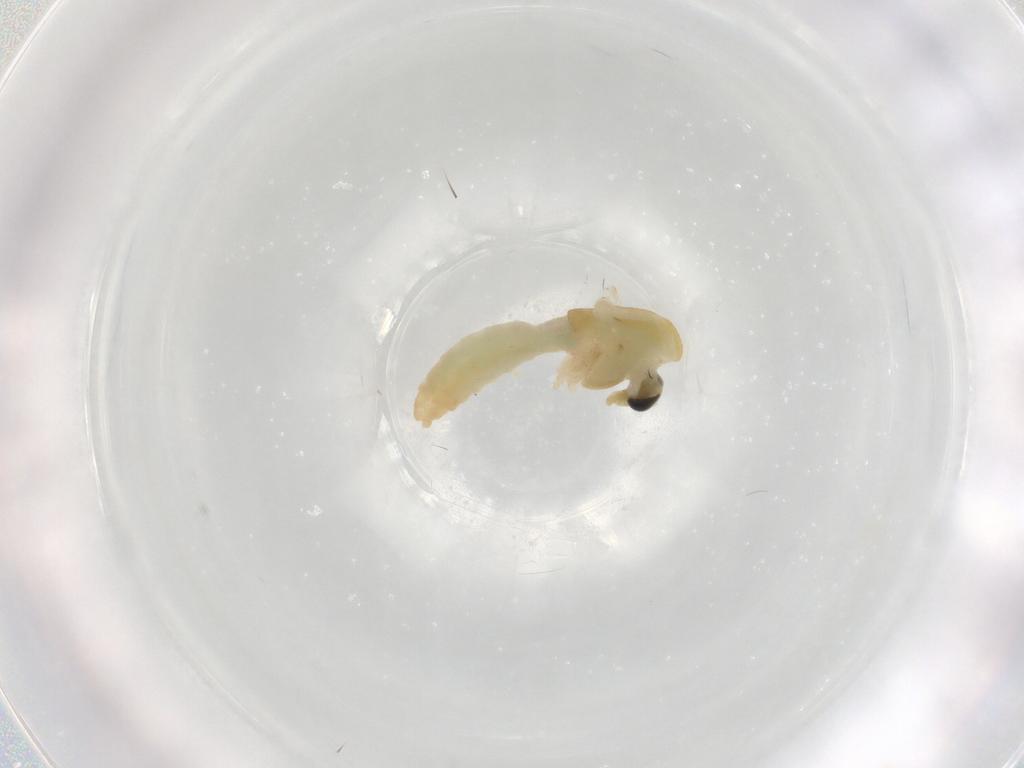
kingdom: Animalia
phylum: Arthropoda
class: Insecta
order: Diptera
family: Chironomidae
